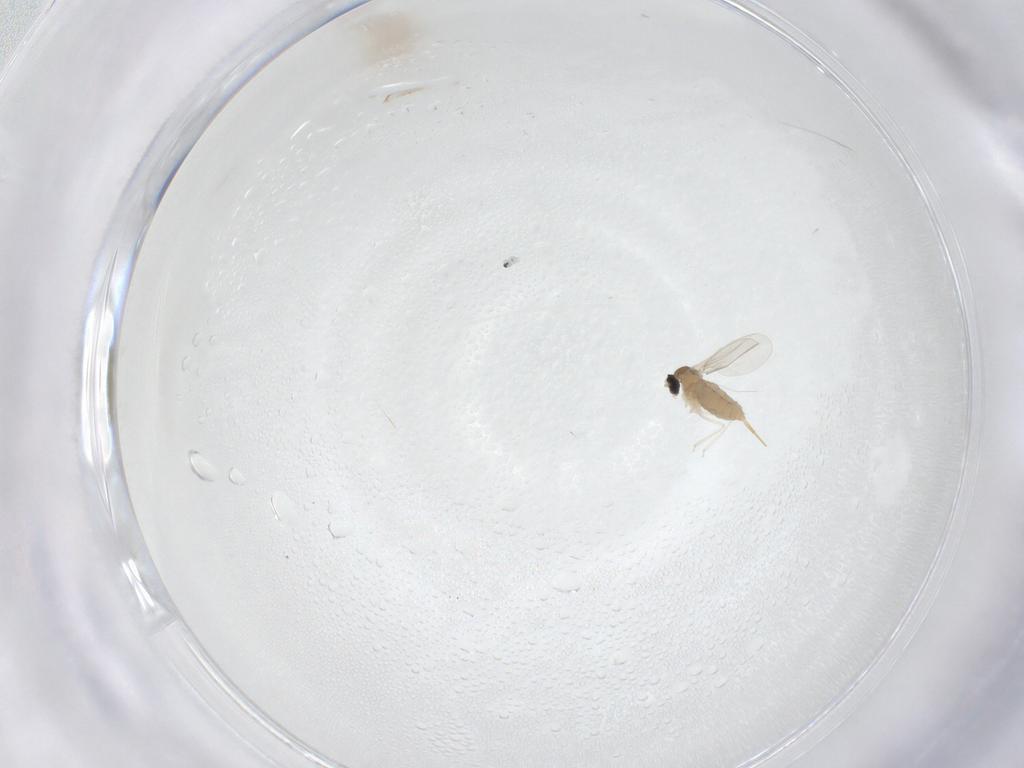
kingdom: Animalia
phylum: Arthropoda
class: Insecta
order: Diptera
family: Cecidomyiidae
